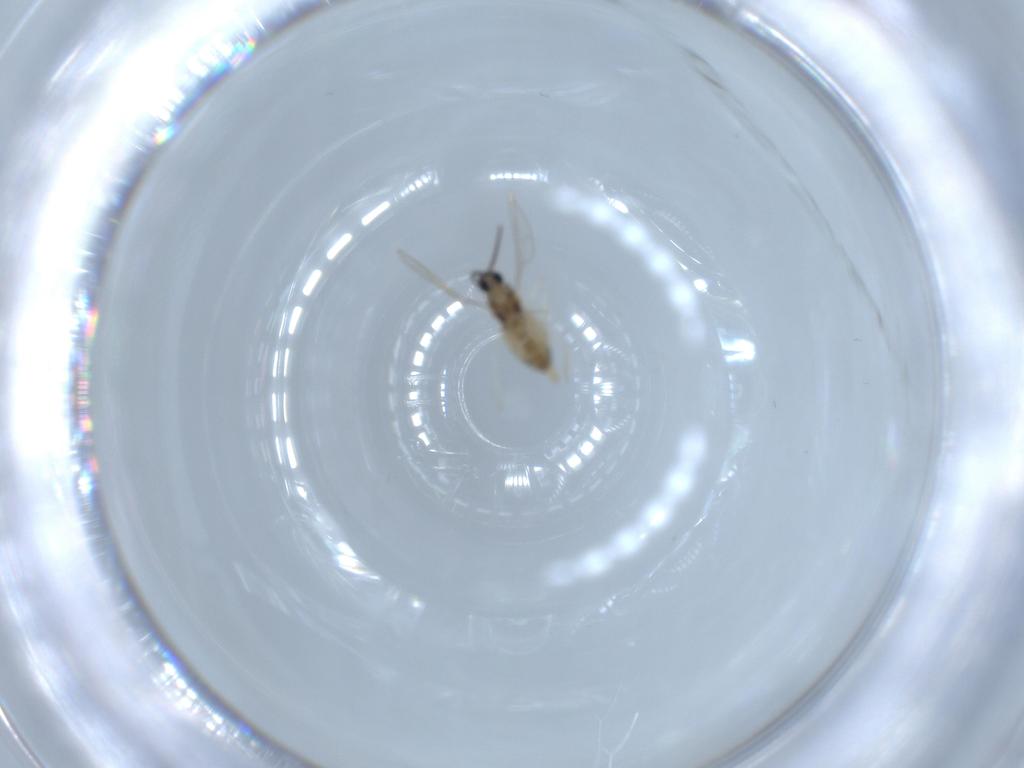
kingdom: Animalia
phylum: Arthropoda
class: Insecta
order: Diptera
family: Cecidomyiidae
